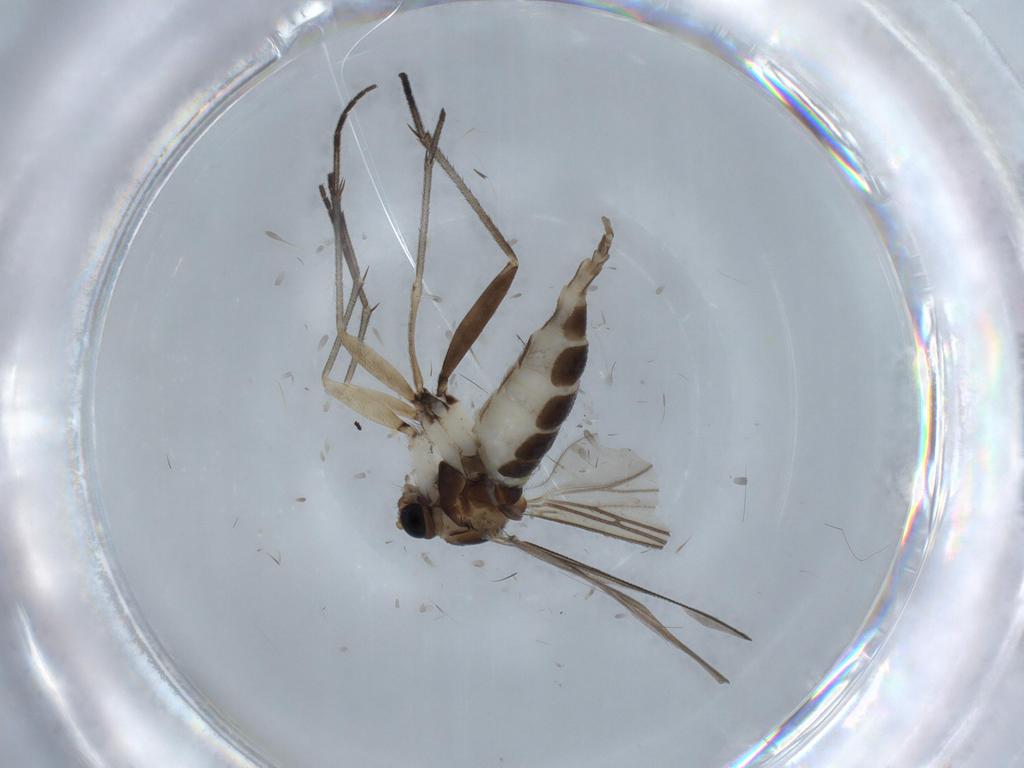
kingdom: Animalia
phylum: Arthropoda
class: Insecta
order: Diptera
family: Sciaridae
